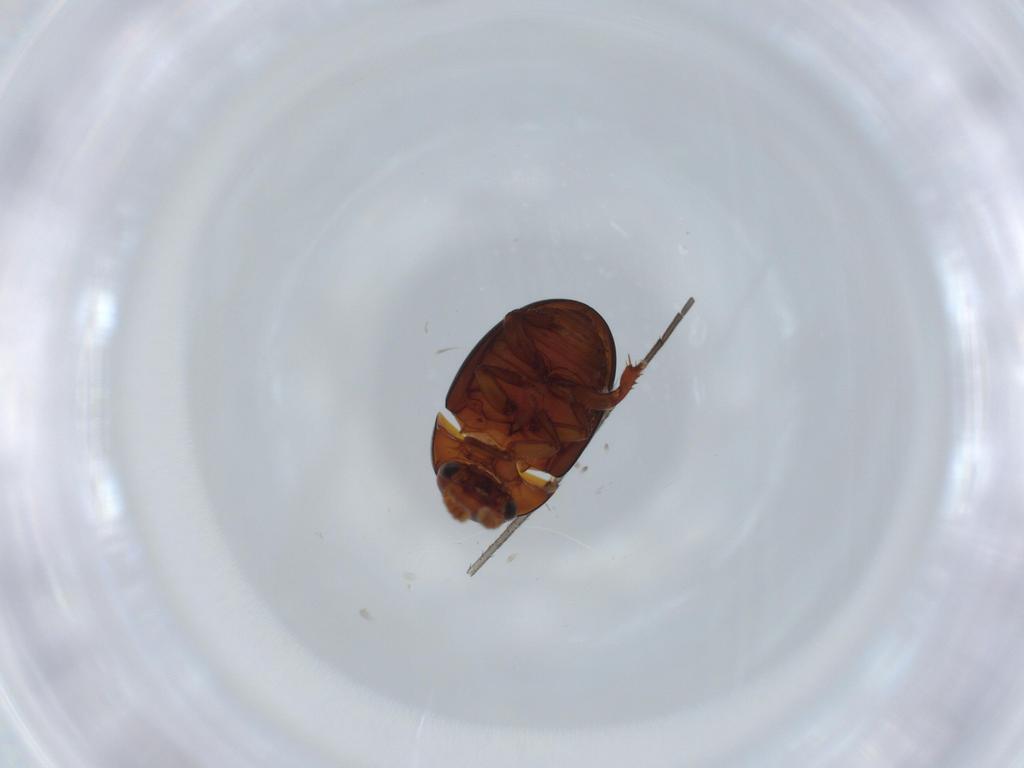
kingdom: Animalia
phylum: Arthropoda
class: Insecta
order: Coleoptera
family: Leiodidae
